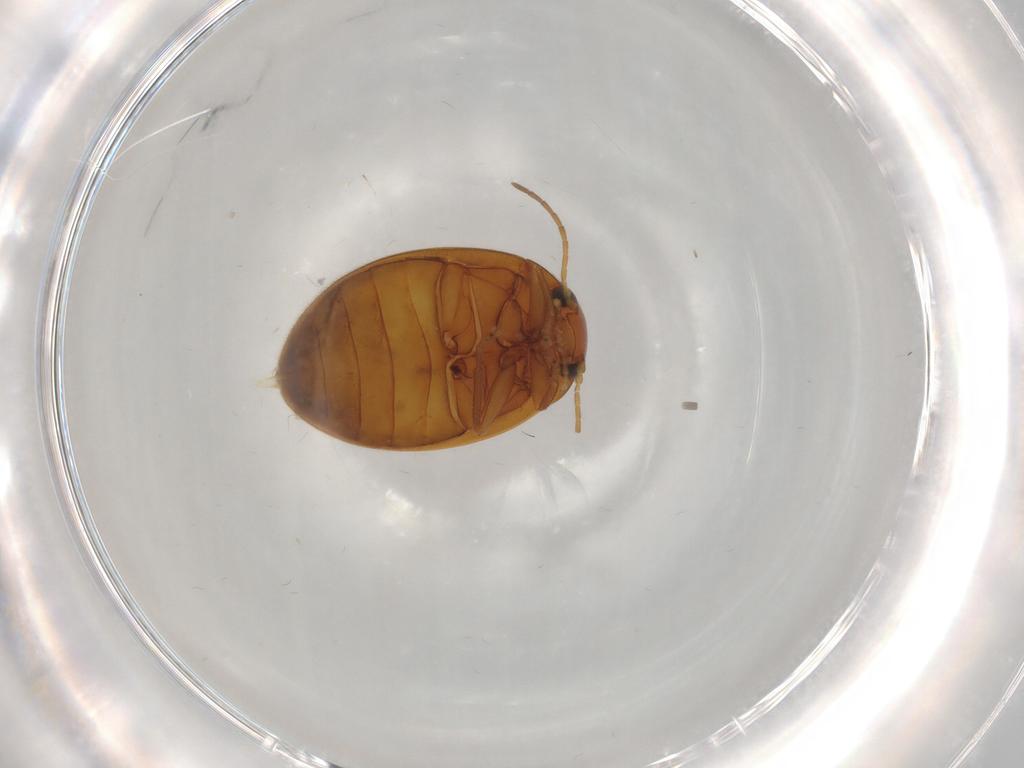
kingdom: Animalia
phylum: Arthropoda
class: Insecta
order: Coleoptera
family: Scirtidae
